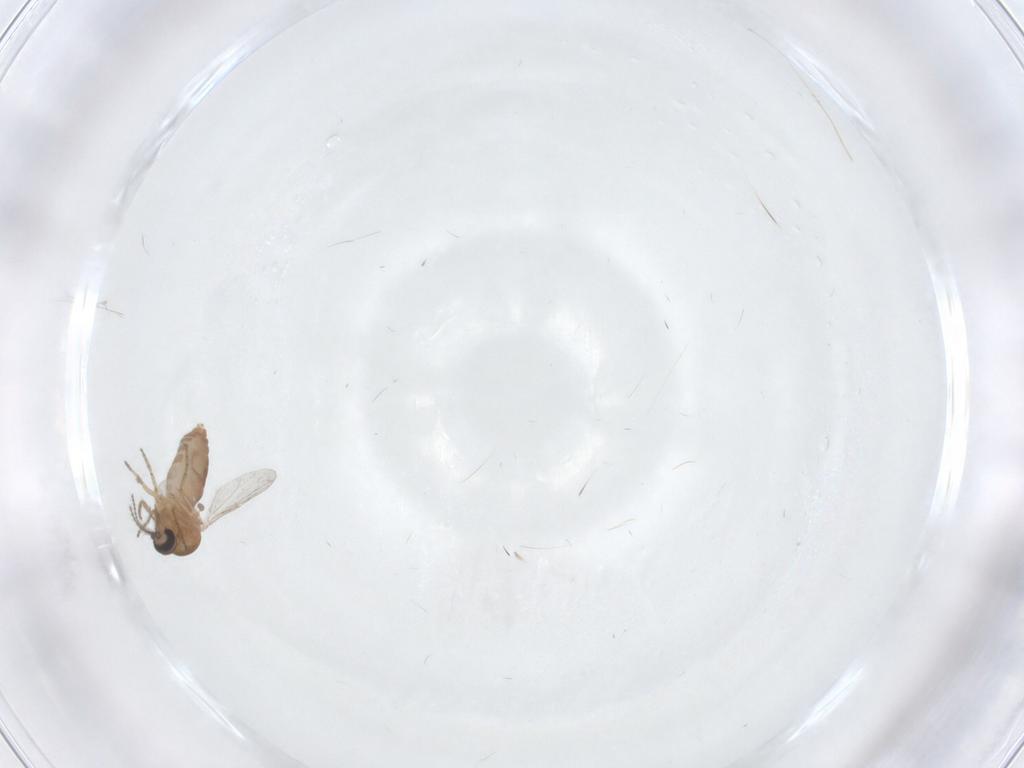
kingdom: Animalia
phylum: Arthropoda
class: Insecta
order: Diptera
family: Ceratopogonidae
